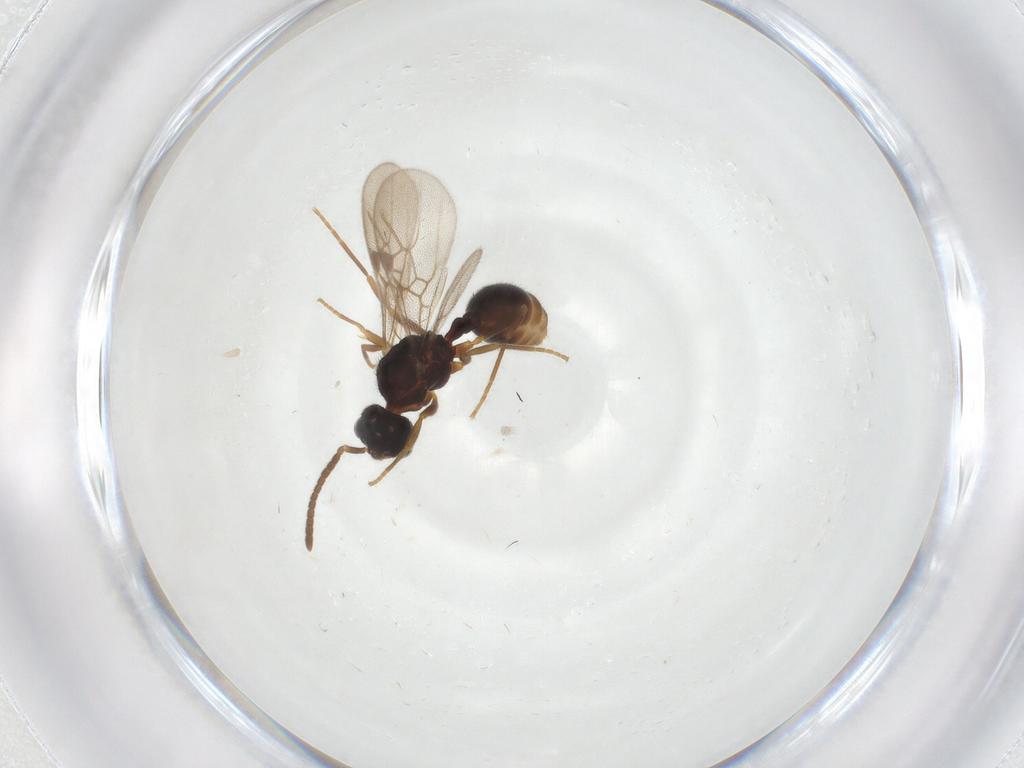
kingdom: Animalia
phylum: Arthropoda
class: Insecta
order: Hymenoptera
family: Formicidae
